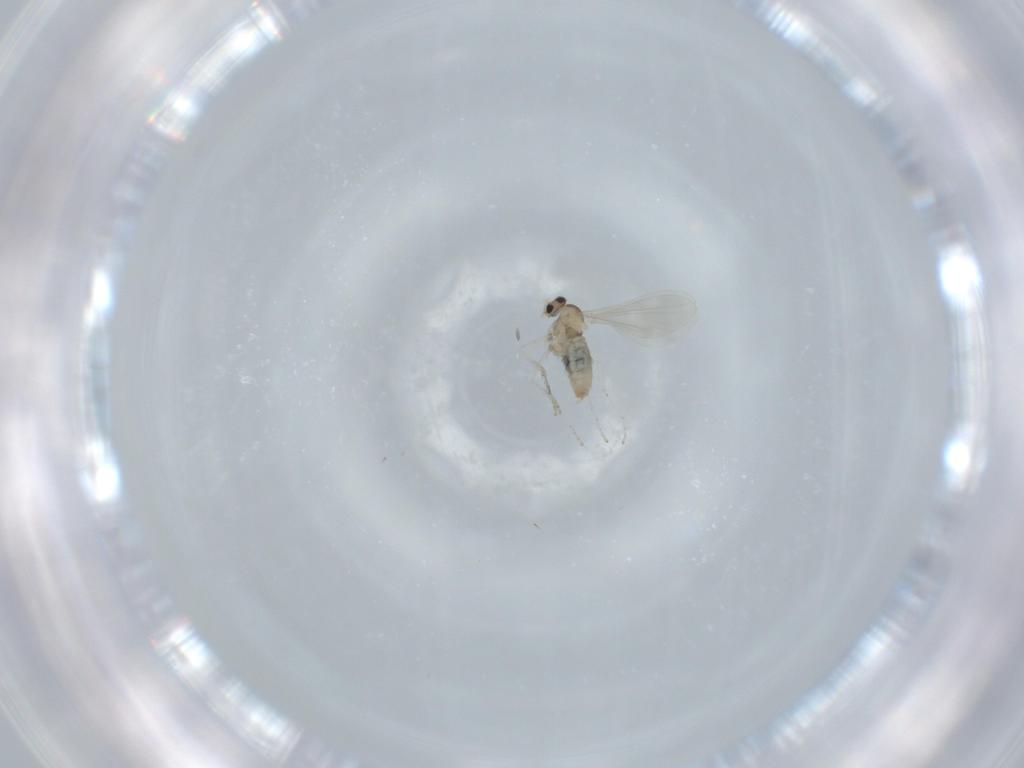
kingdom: Animalia
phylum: Arthropoda
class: Insecta
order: Diptera
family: Cecidomyiidae
